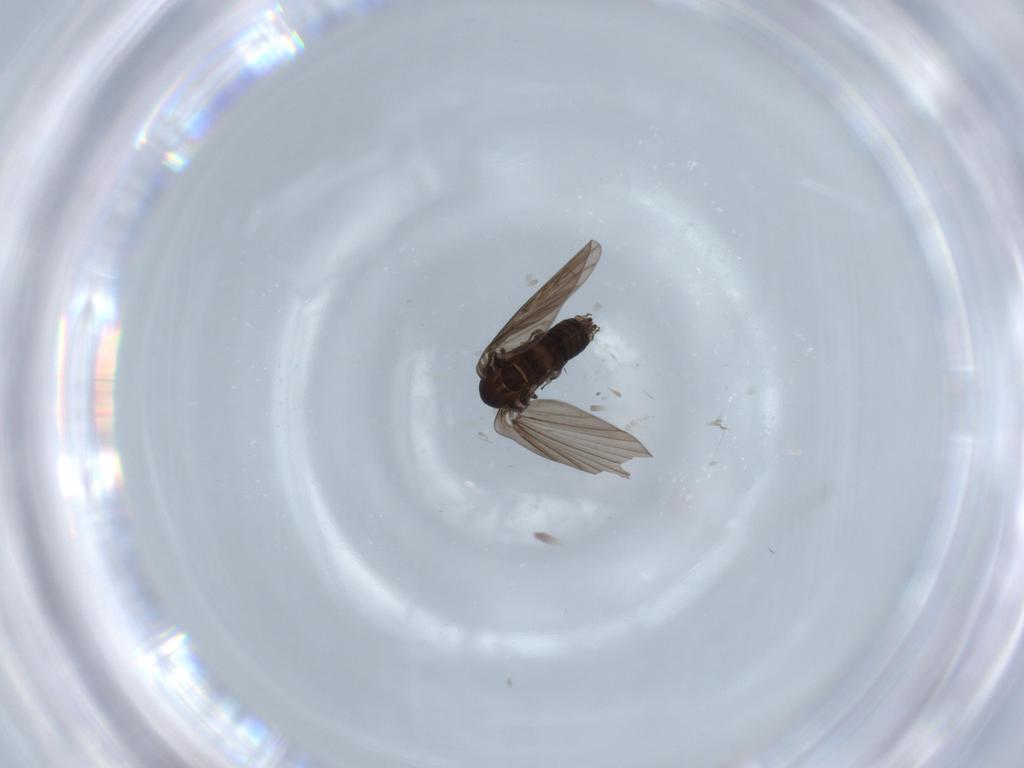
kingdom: Animalia
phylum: Arthropoda
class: Insecta
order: Diptera
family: Psychodidae
